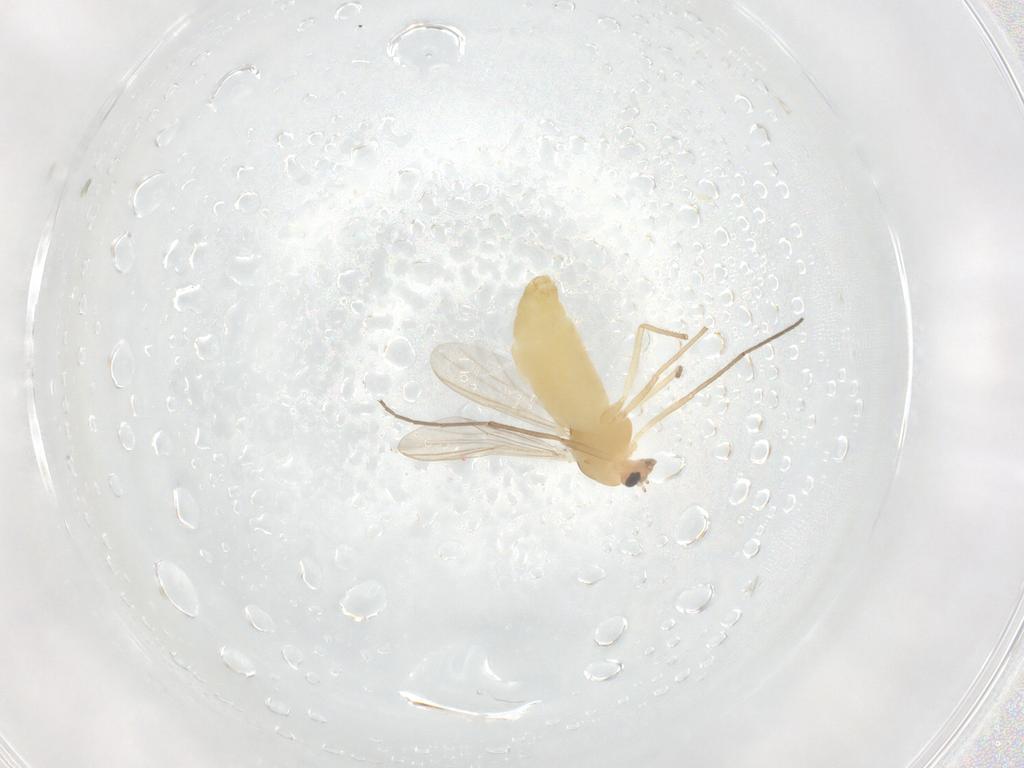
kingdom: Animalia
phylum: Arthropoda
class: Insecta
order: Diptera
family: Chironomidae
